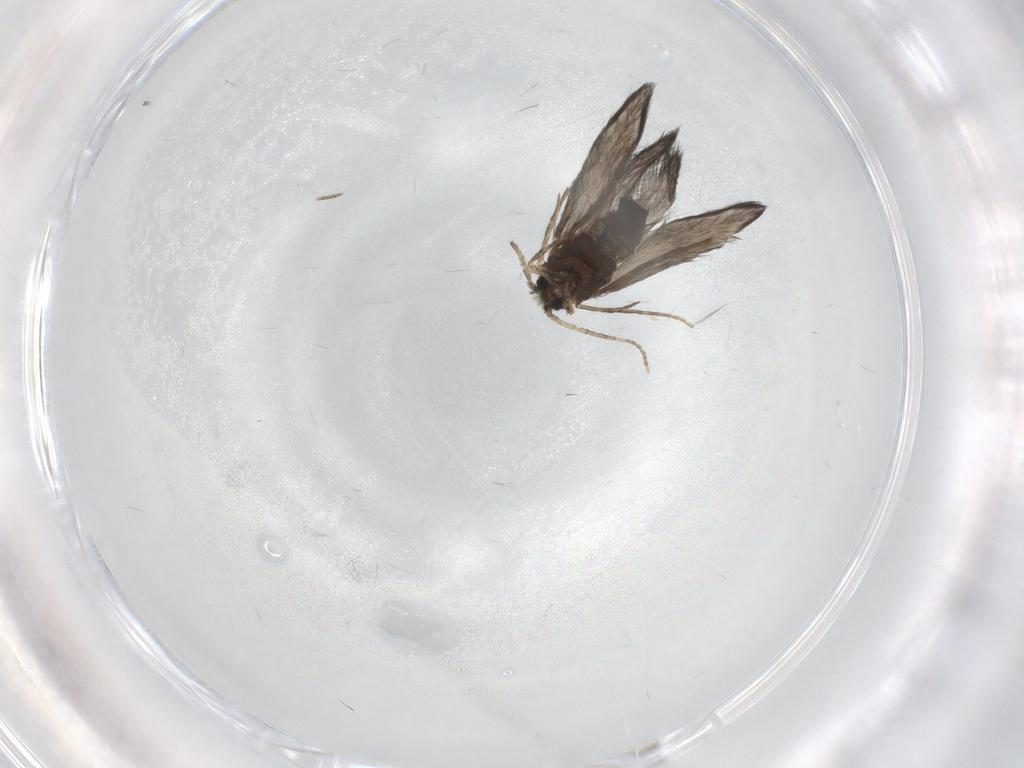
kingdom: Animalia
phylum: Arthropoda
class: Insecta
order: Trichoptera
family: Hydroptilidae
